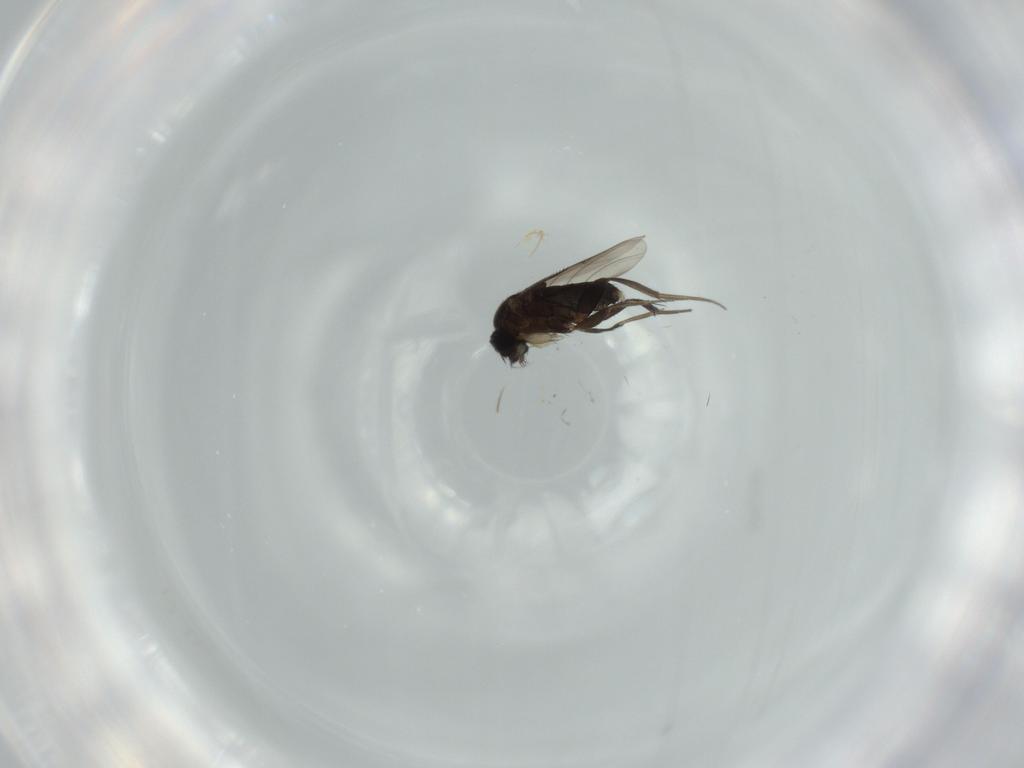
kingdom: Animalia
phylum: Arthropoda
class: Insecta
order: Diptera
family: Phoridae
